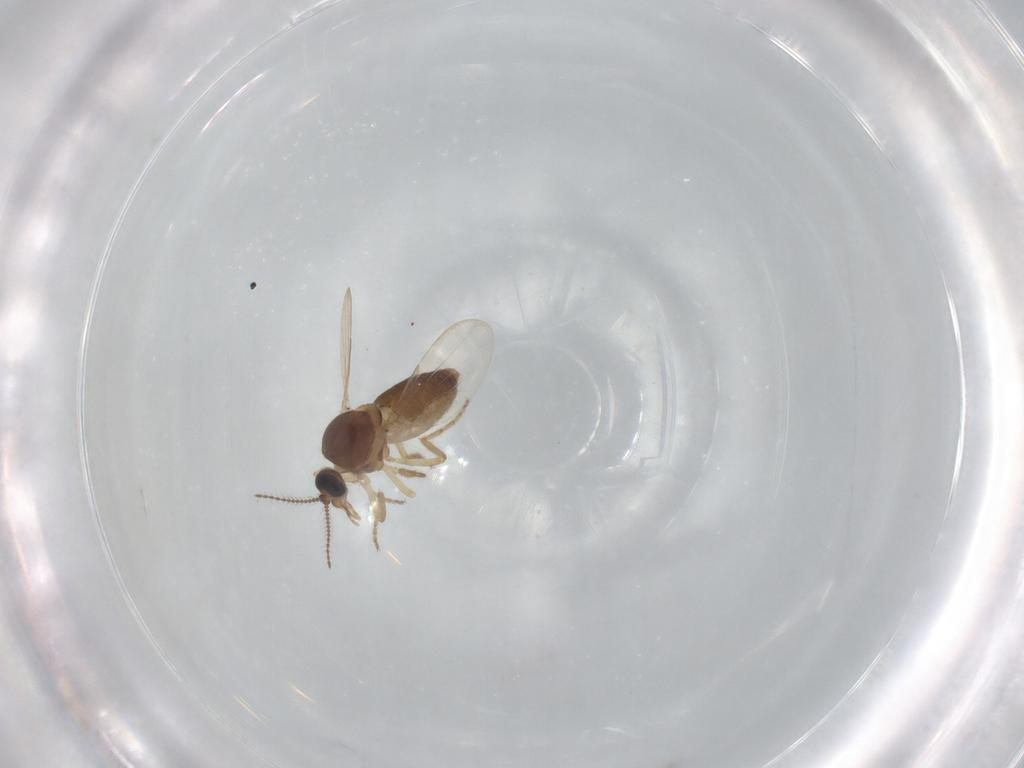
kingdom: Animalia
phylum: Arthropoda
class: Insecta
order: Diptera
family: Ceratopogonidae
